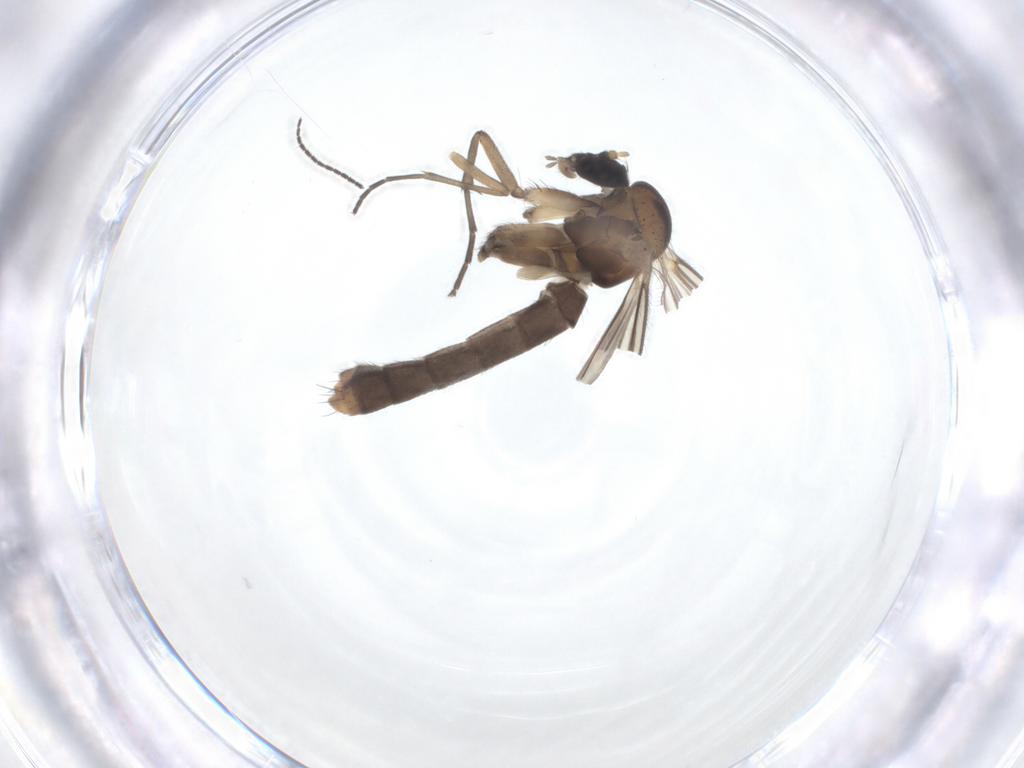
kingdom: Animalia
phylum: Arthropoda
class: Insecta
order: Diptera
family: Mycetophilidae
